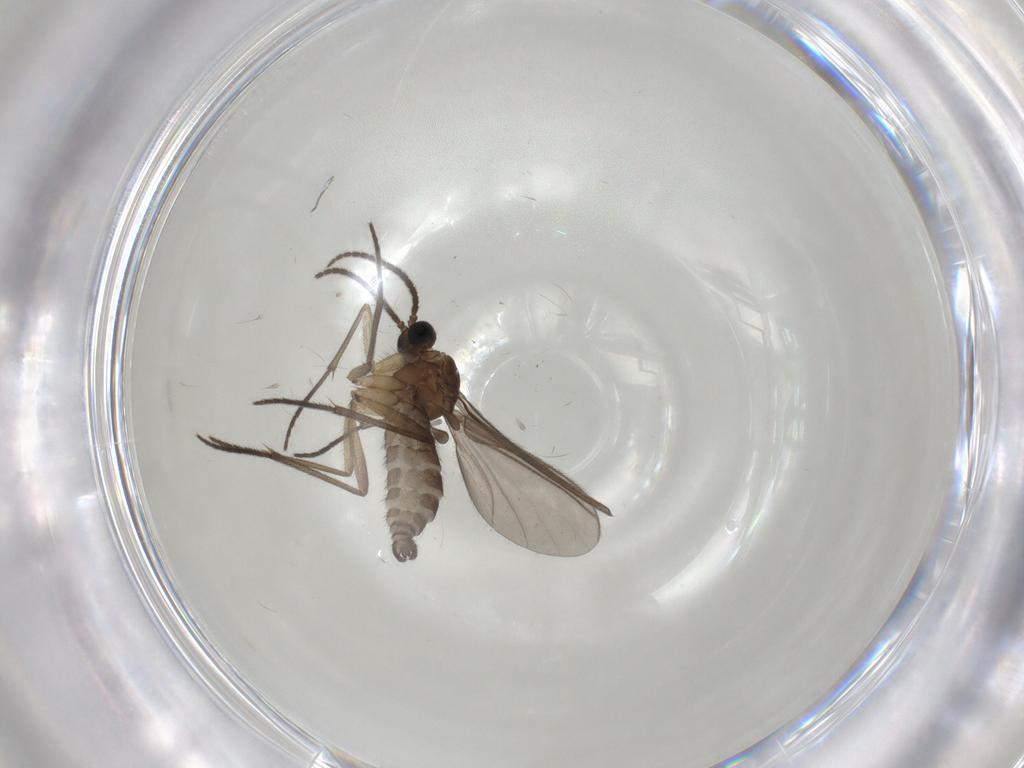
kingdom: Animalia
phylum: Arthropoda
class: Insecta
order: Diptera
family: Sciaridae
